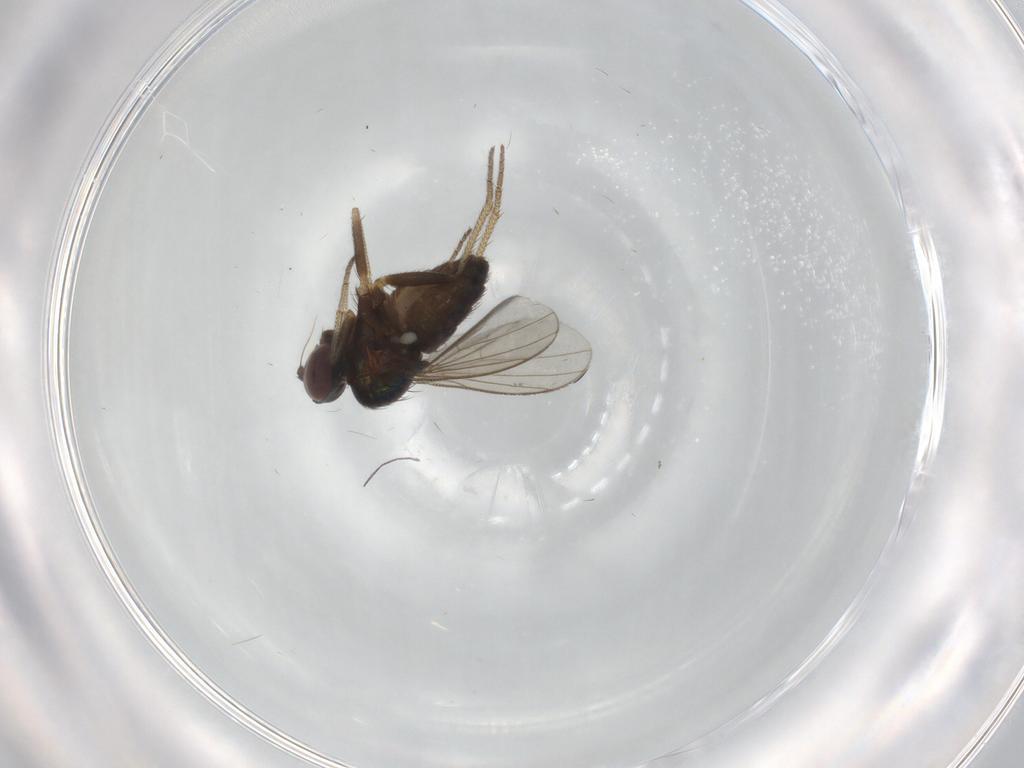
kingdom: Animalia
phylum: Arthropoda
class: Insecta
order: Diptera
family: Dolichopodidae
